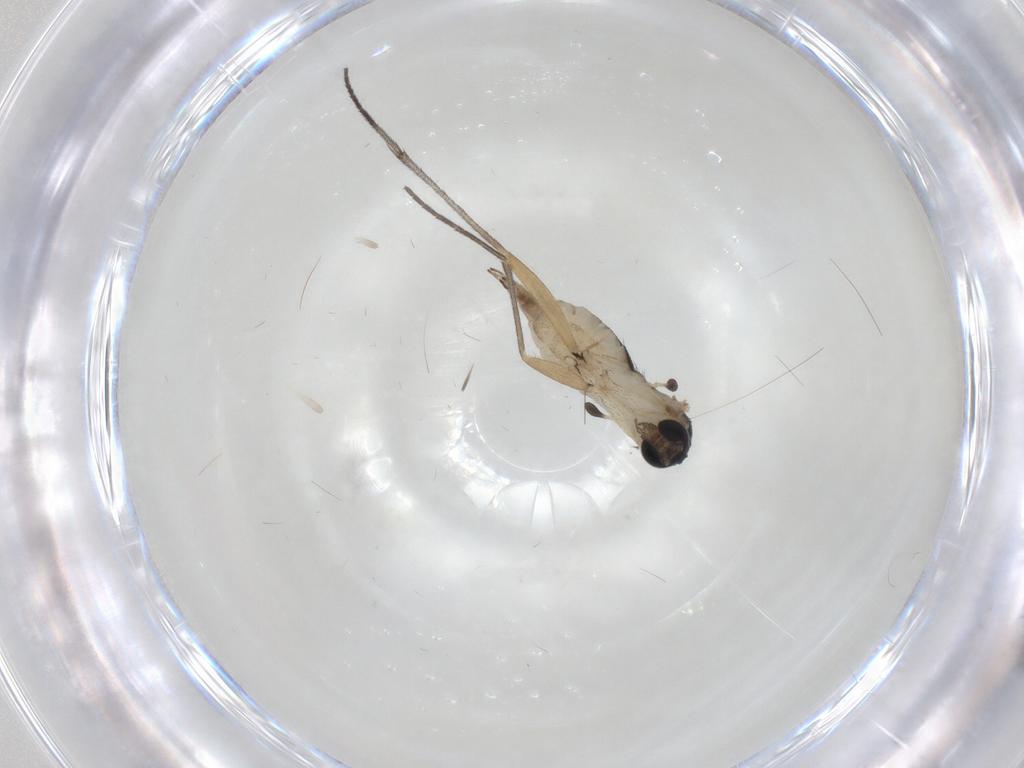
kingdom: Animalia
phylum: Arthropoda
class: Insecta
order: Diptera
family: Sciaridae
